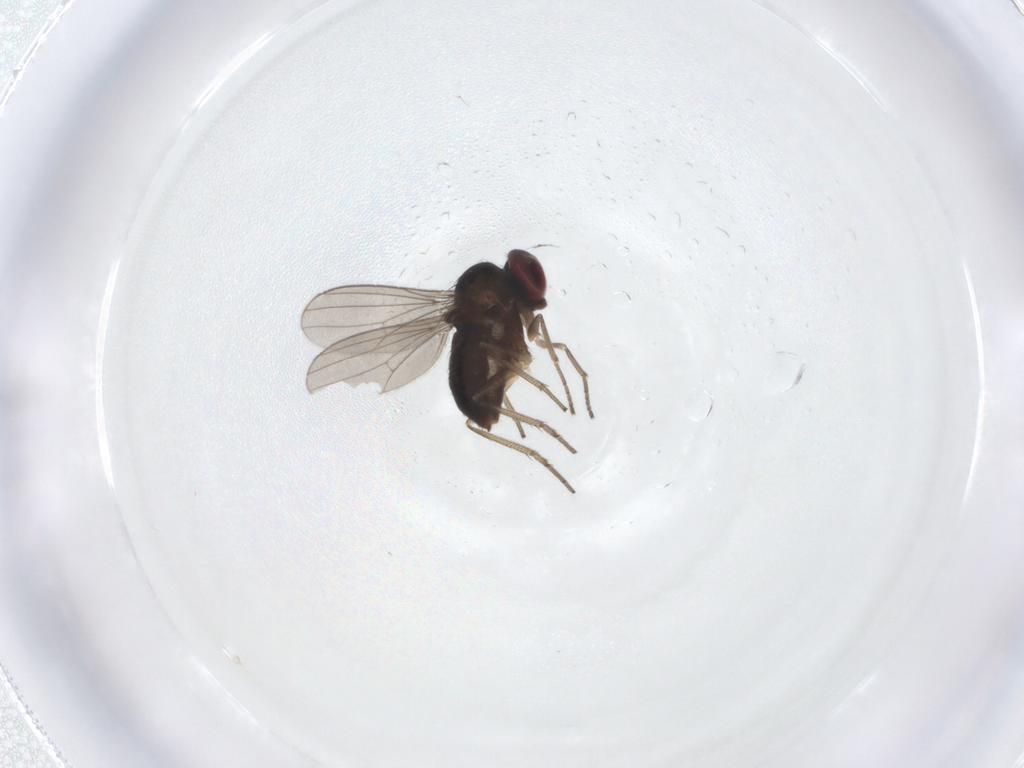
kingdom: Animalia
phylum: Arthropoda
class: Insecta
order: Diptera
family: Dolichopodidae
